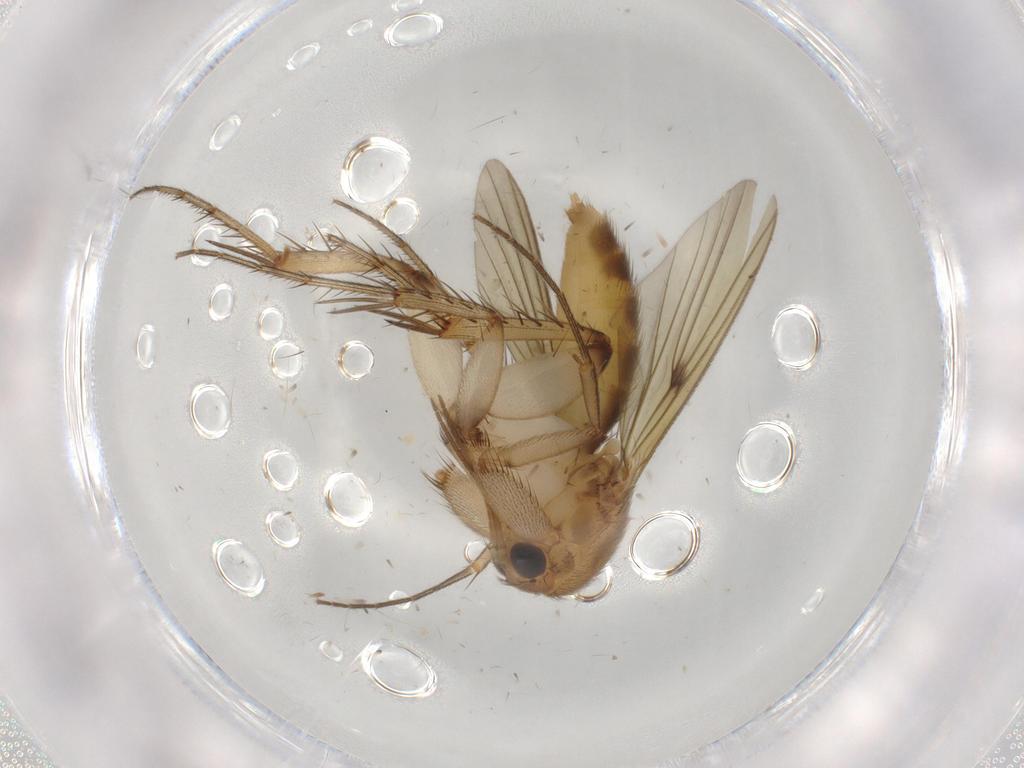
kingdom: Animalia
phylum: Arthropoda
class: Insecta
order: Diptera
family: Mycetophilidae
